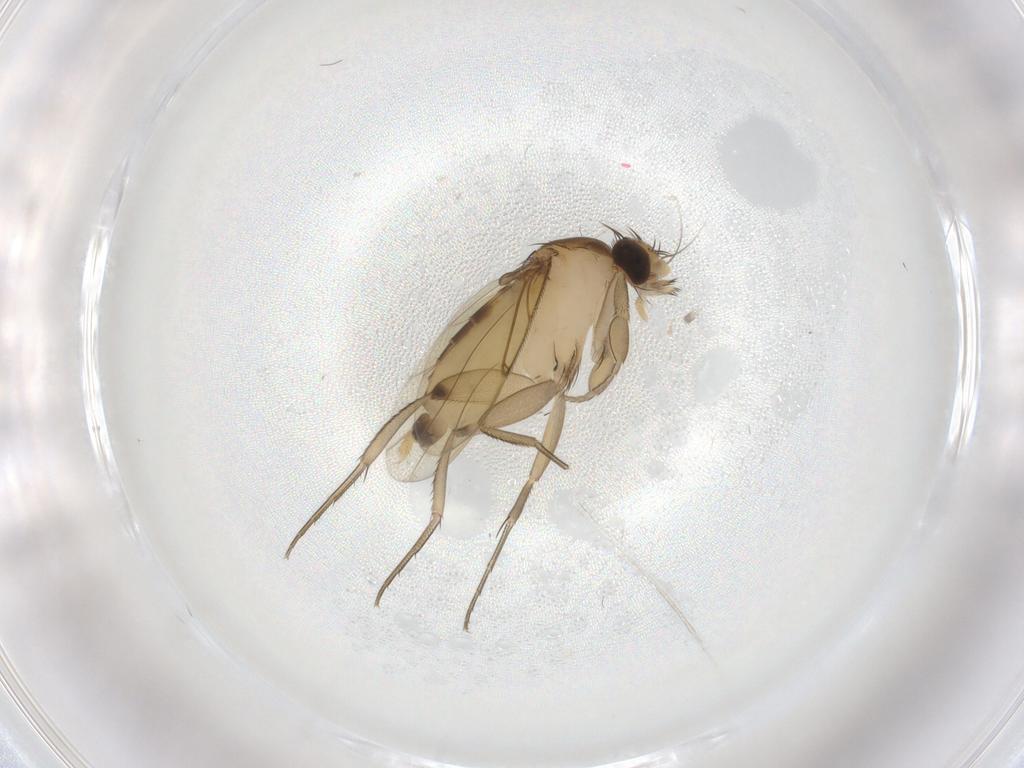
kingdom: Animalia
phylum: Arthropoda
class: Insecta
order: Diptera
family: Phoridae
